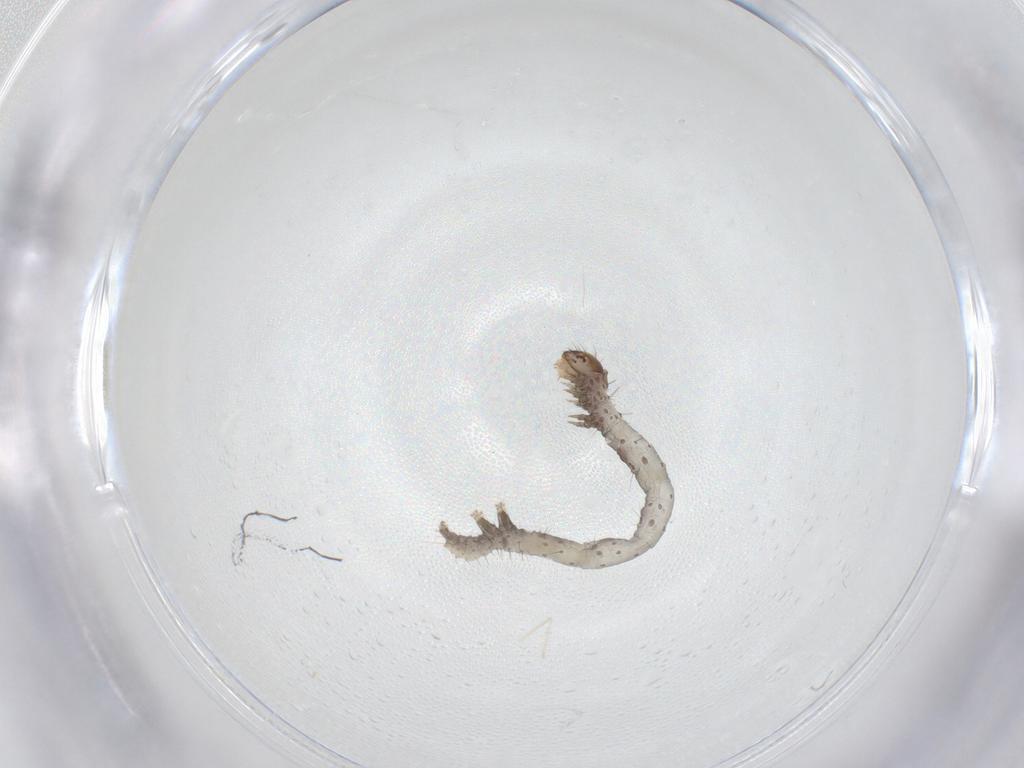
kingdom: Animalia
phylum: Arthropoda
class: Insecta
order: Lepidoptera
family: Erebidae
